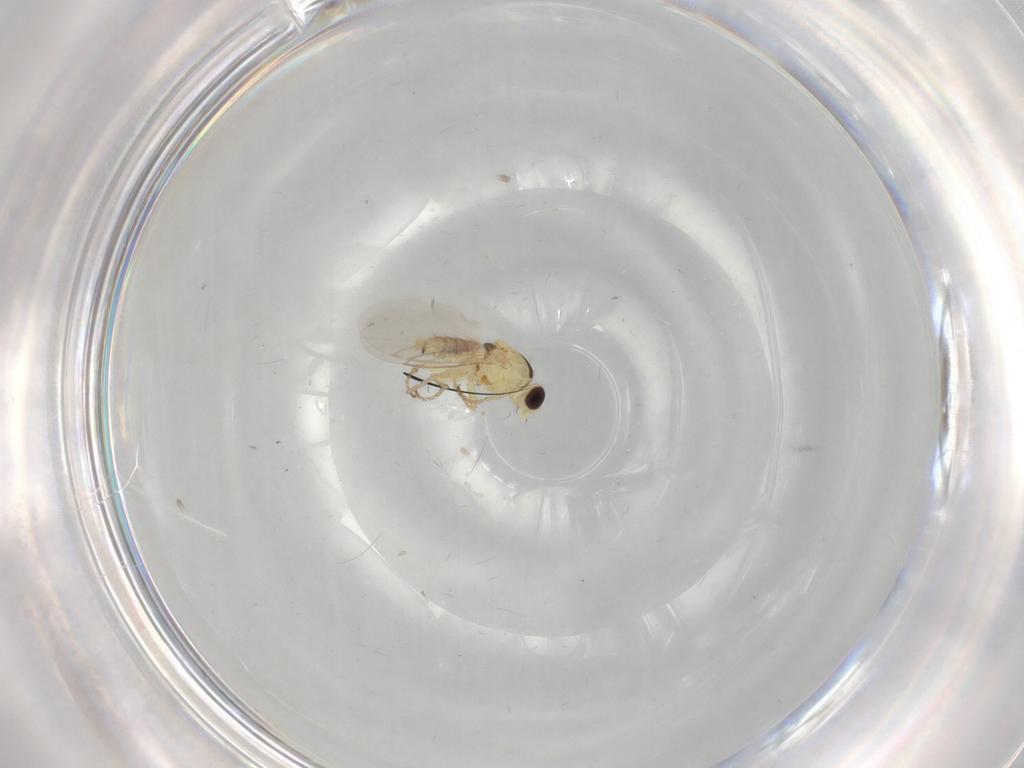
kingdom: Animalia
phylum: Arthropoda
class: Insecta
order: Diptera
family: Agromyzidae
